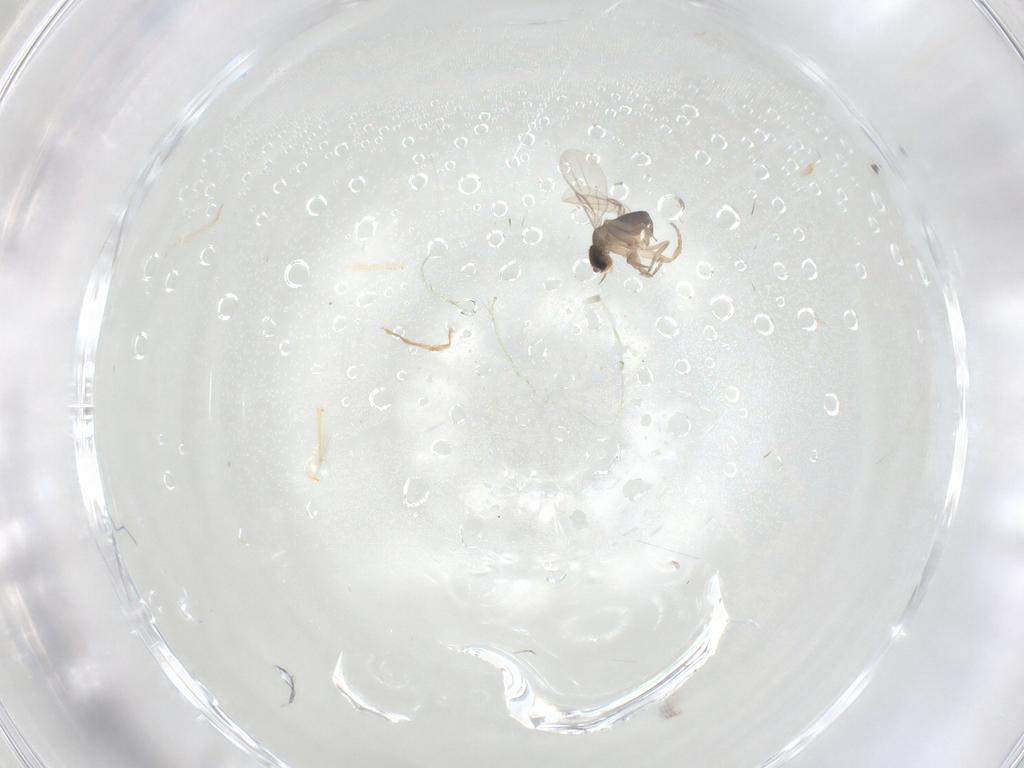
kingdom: Animalia
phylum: Arthropoda
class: Insecta
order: Diptera
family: Phoridae
